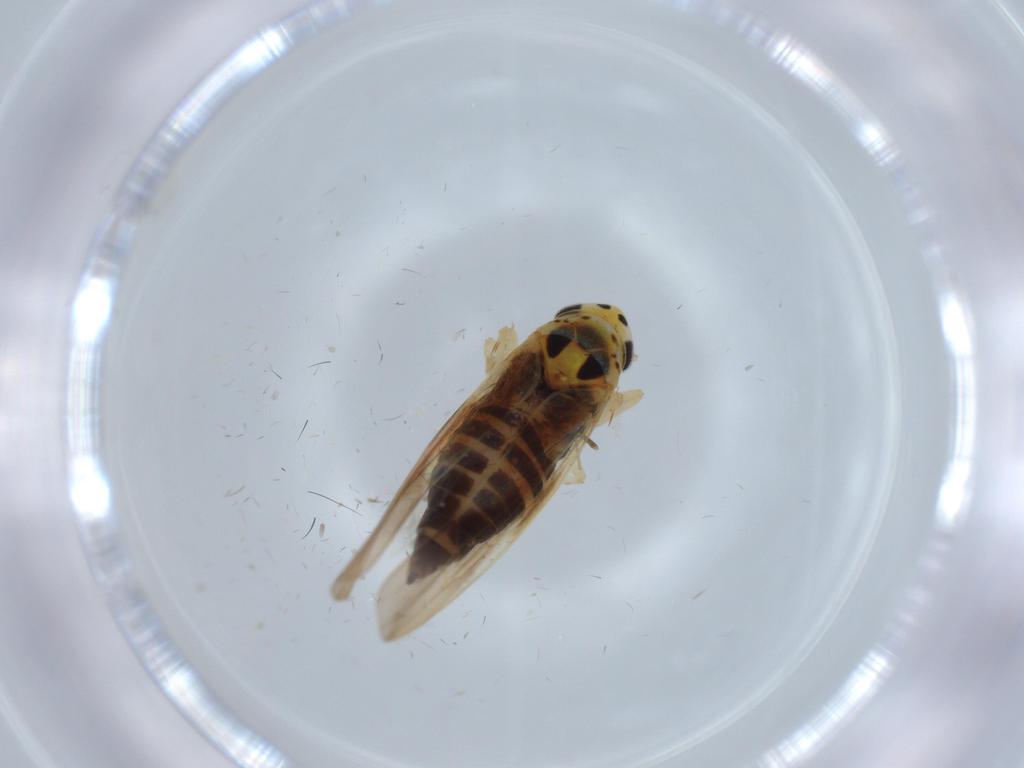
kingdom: Animalia
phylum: Arthropoda
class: Insecta
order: Hemiptera
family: Cicadellidae
